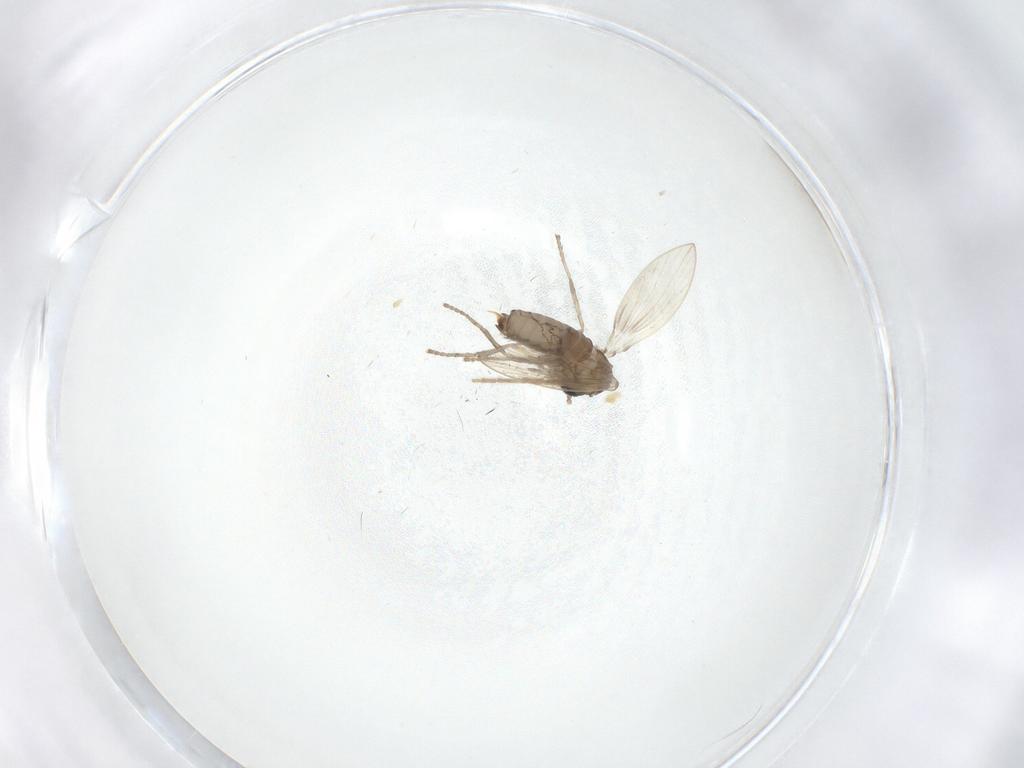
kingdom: Animalia
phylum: Arthropoda
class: Insecta
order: Diptera
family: Psychodidae
